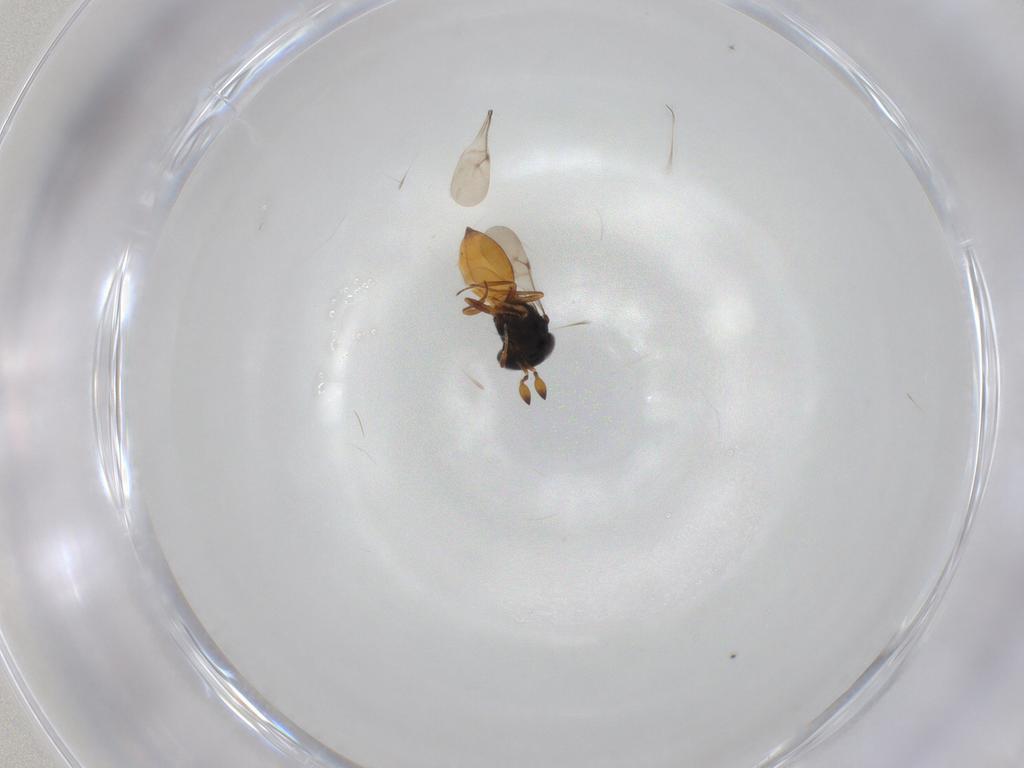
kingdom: Animalia
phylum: Arthropoda
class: Insecta
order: Hymenoptera
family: Scelionidae
